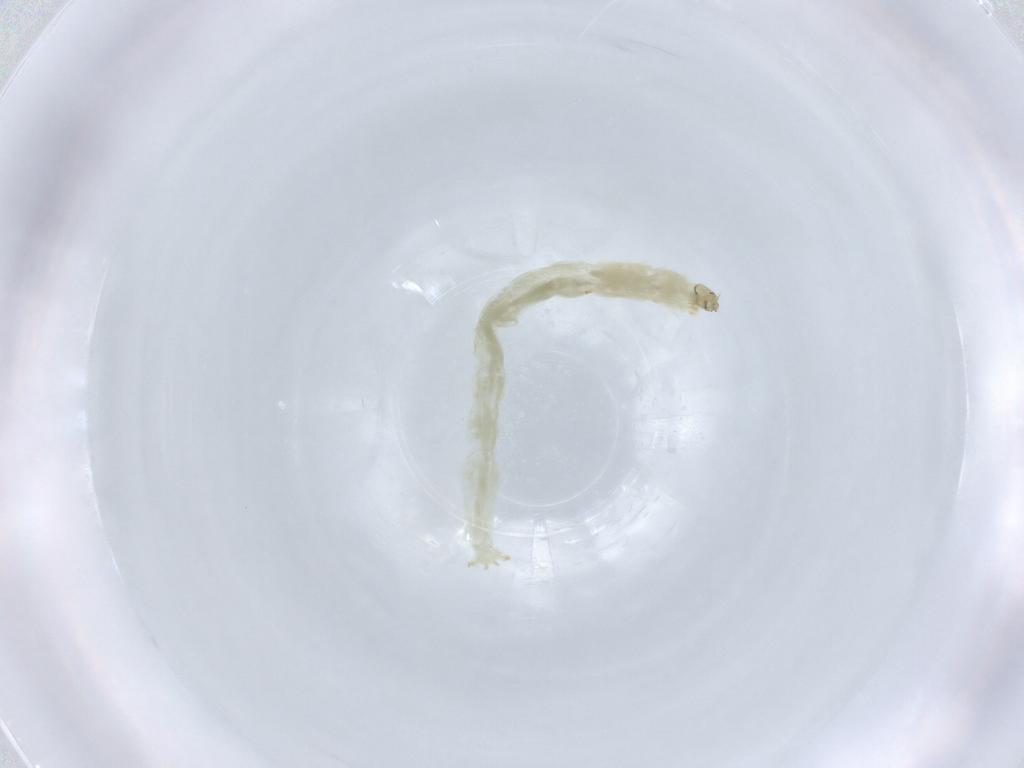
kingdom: Animalia
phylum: Arthropoda
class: Insecta
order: Diptera
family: Chironomidae
